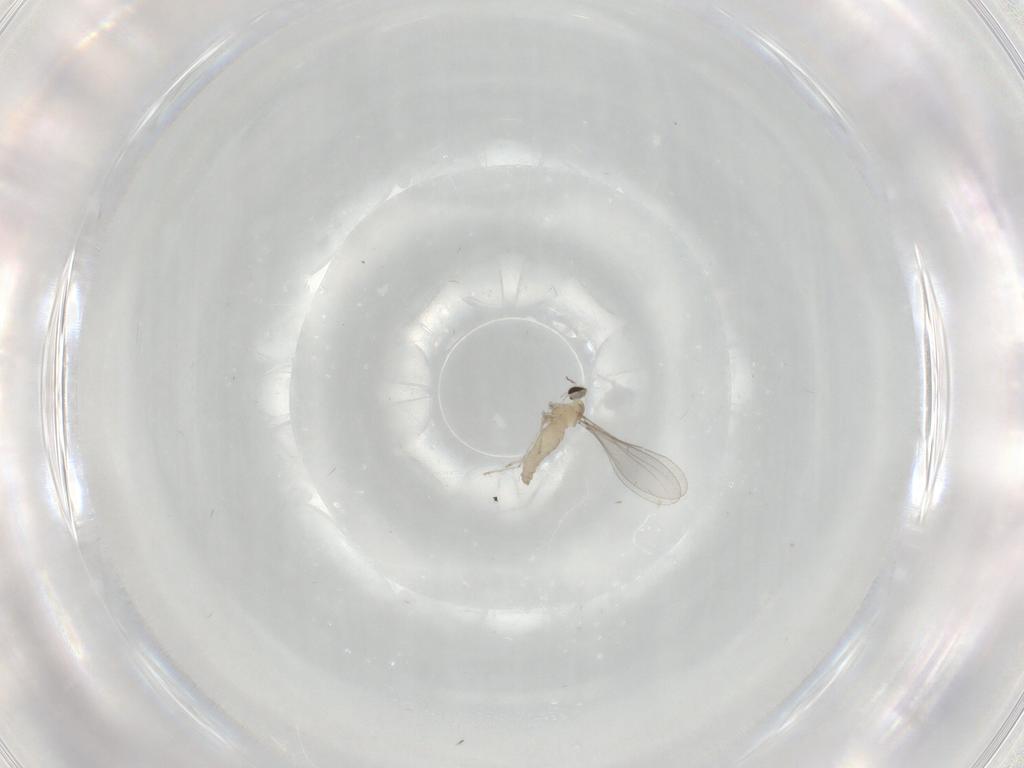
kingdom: Animalia
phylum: Arthropoda
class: Insecta
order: Diptera
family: Cecidomyiidae
